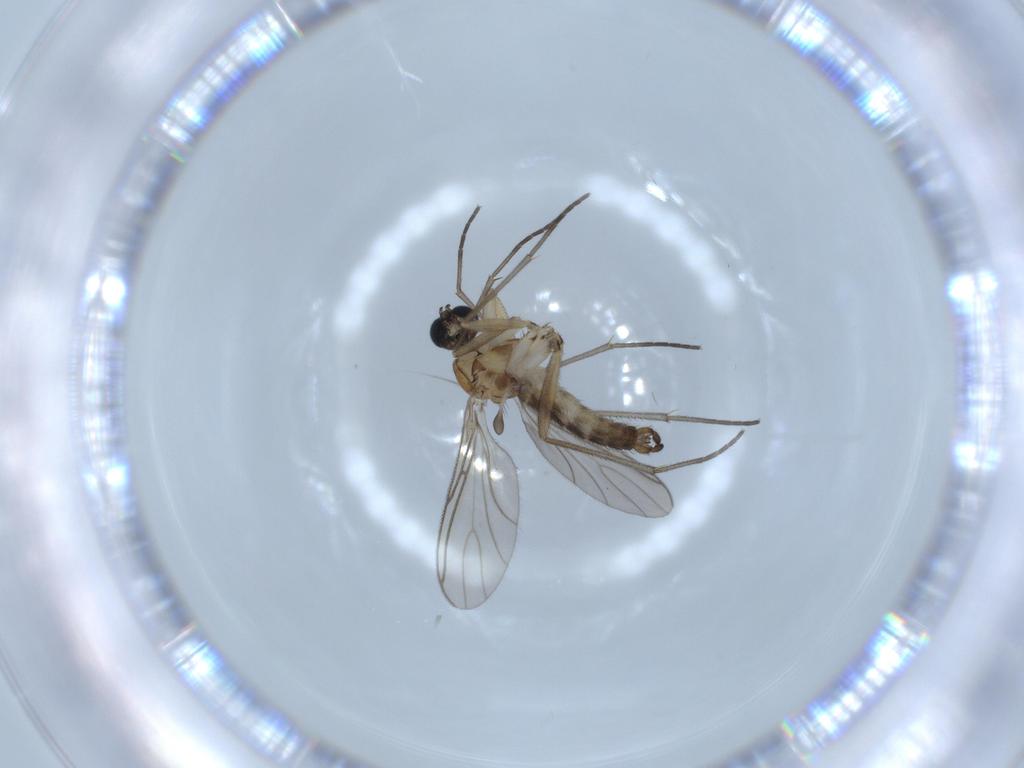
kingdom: Animalia
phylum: Arthropoda
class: Insecta
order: Diptera
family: Sciaridae
